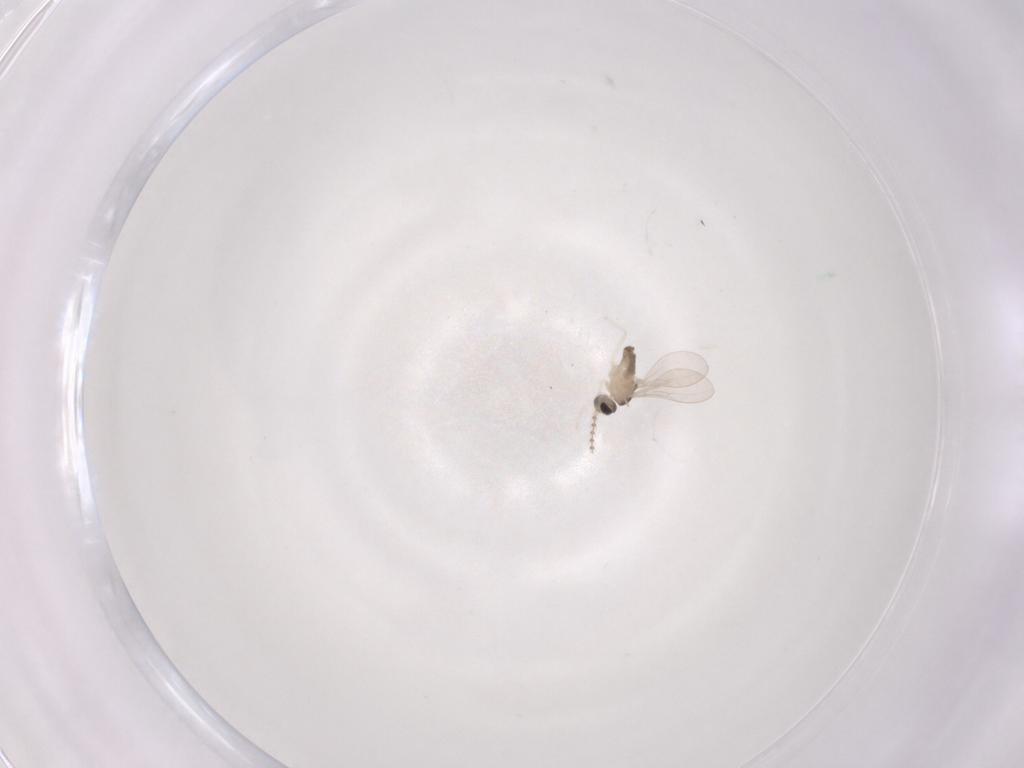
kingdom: Animalia
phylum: Arthropoda
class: Insecta
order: Diptera
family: Cecidomyiidae
